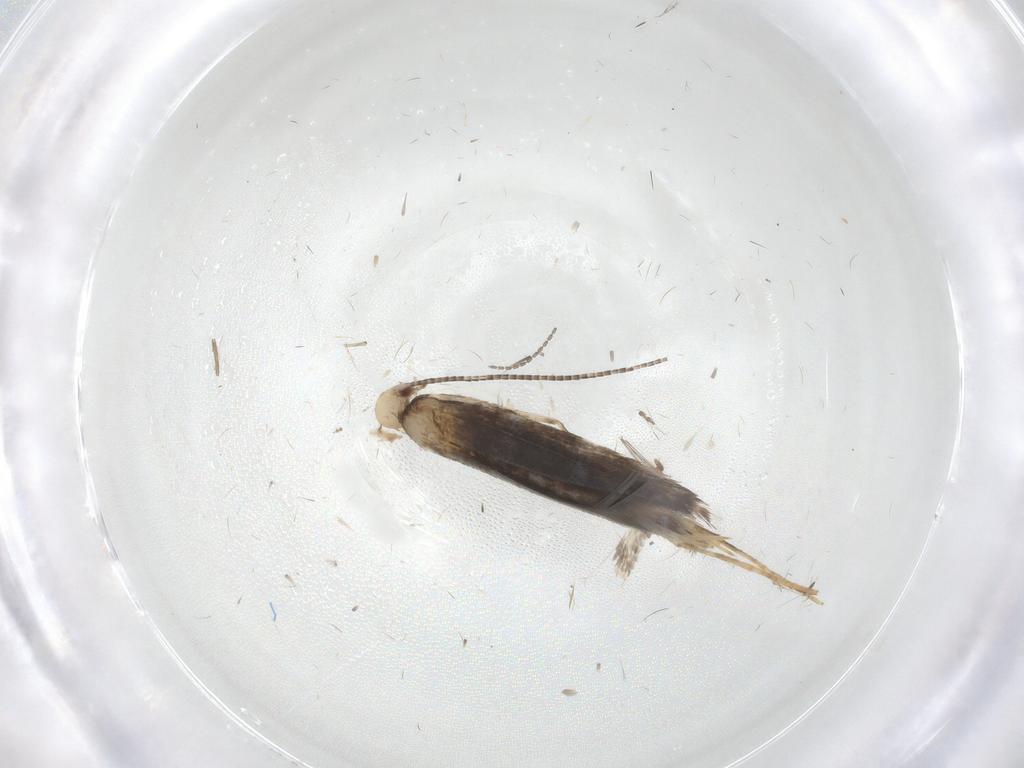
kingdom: Animalia
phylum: Arthropoda
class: Insecta
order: Lepidoptera
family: Gracillariidae
